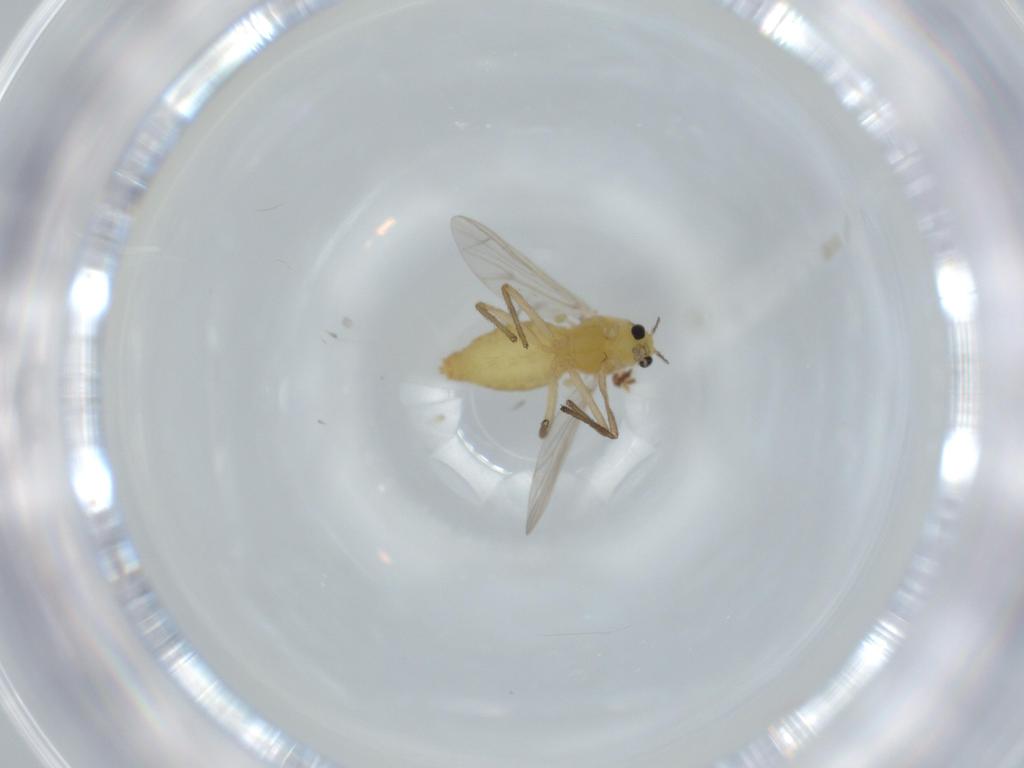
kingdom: Animalia
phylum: Arthropoda
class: Insecta
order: Diptera
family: Chironomidae
